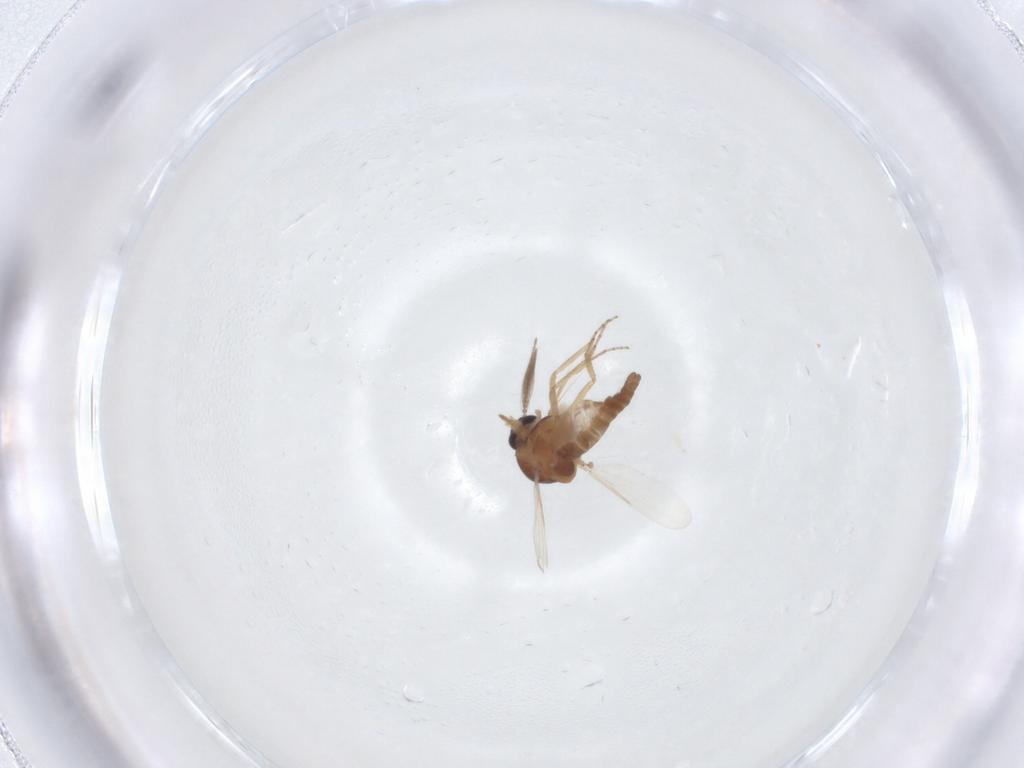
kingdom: Animalia
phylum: Arthropoda
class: Insecta
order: Diptera
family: Ceratopogonidae
